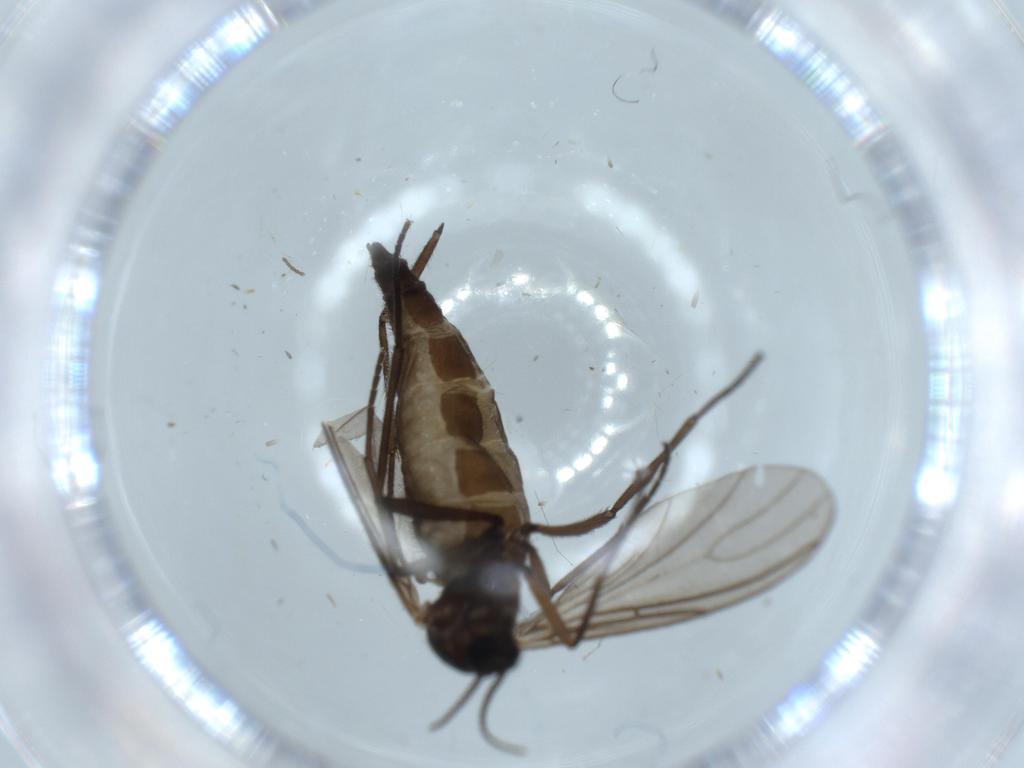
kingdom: Animalia
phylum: Arthropoda
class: Insecta
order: Diptera
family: Sciaridae
